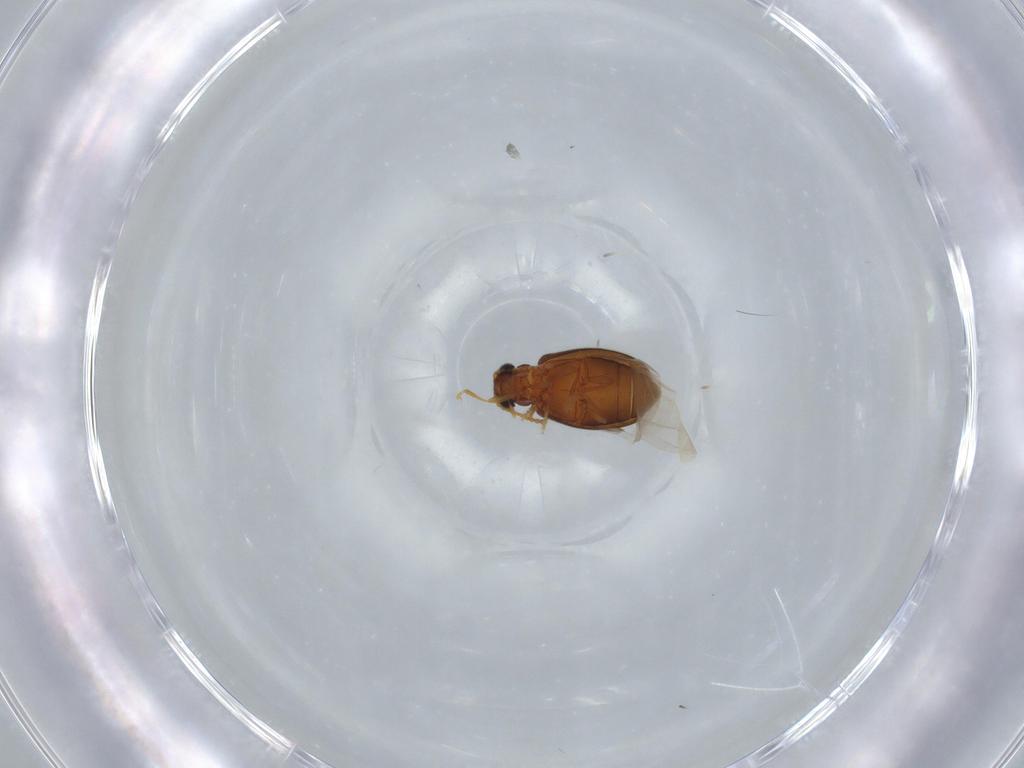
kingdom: Animalia
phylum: Arthropoda
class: Insecta
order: Coleoptera
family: Aderidae
